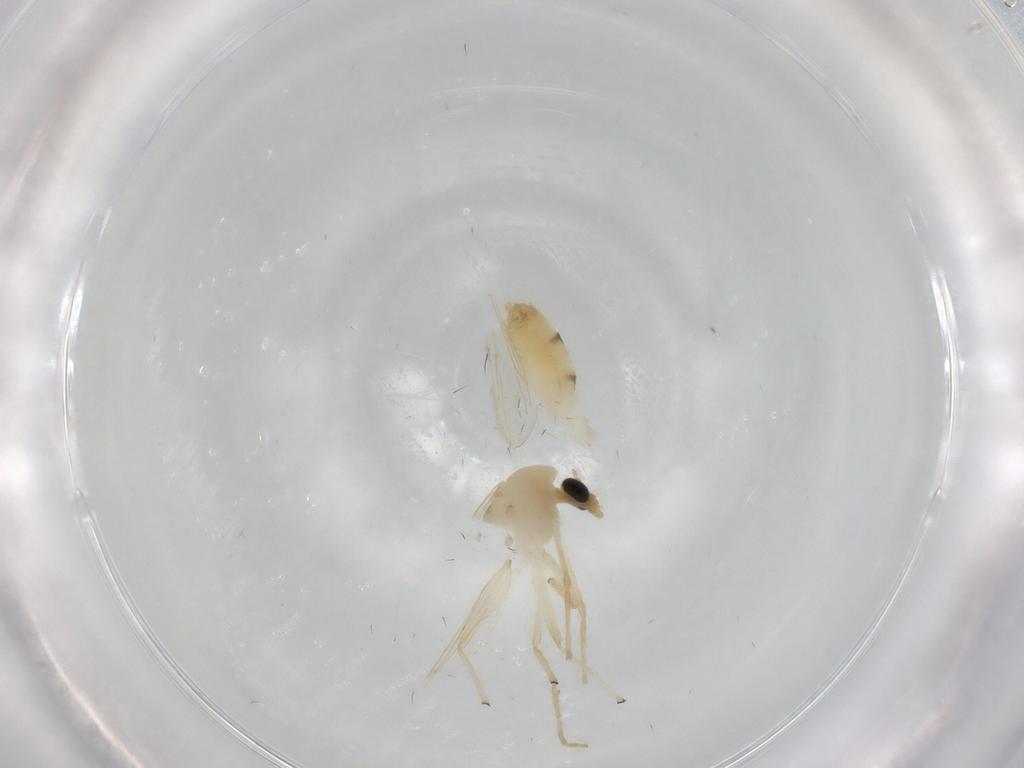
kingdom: Animalia
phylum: Arthropoda
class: Insecta
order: Diptera
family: Chironomidae
